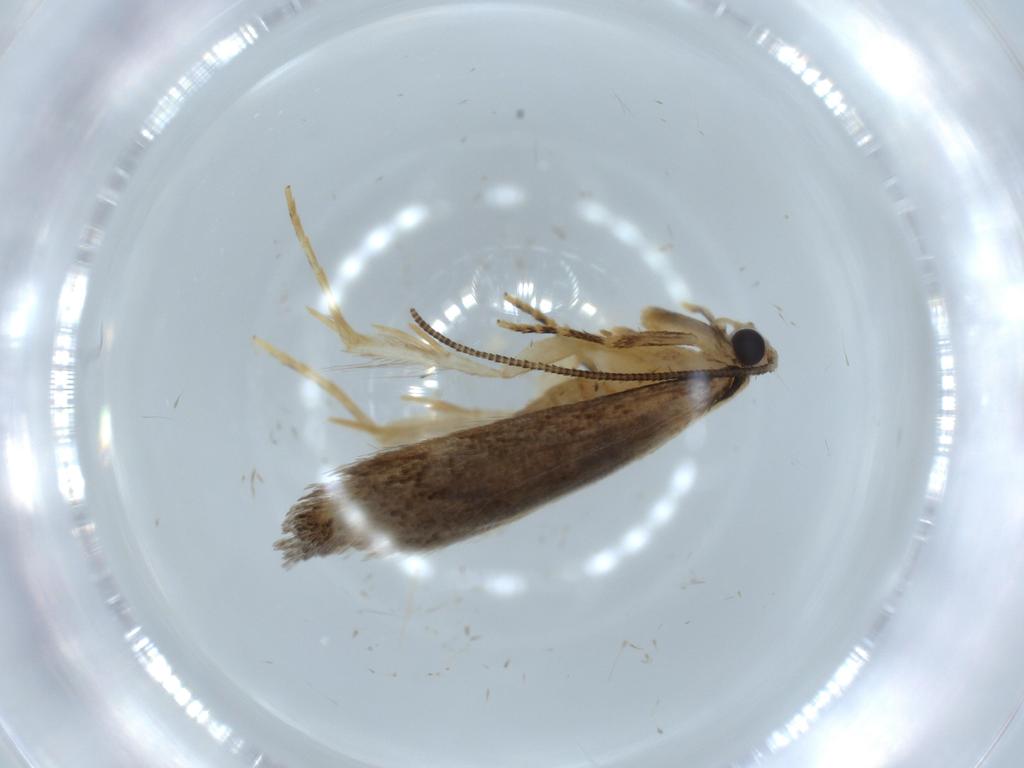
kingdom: Animalia
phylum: Arthropoda
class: Insecta
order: Lepidoptera
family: Tineidae
